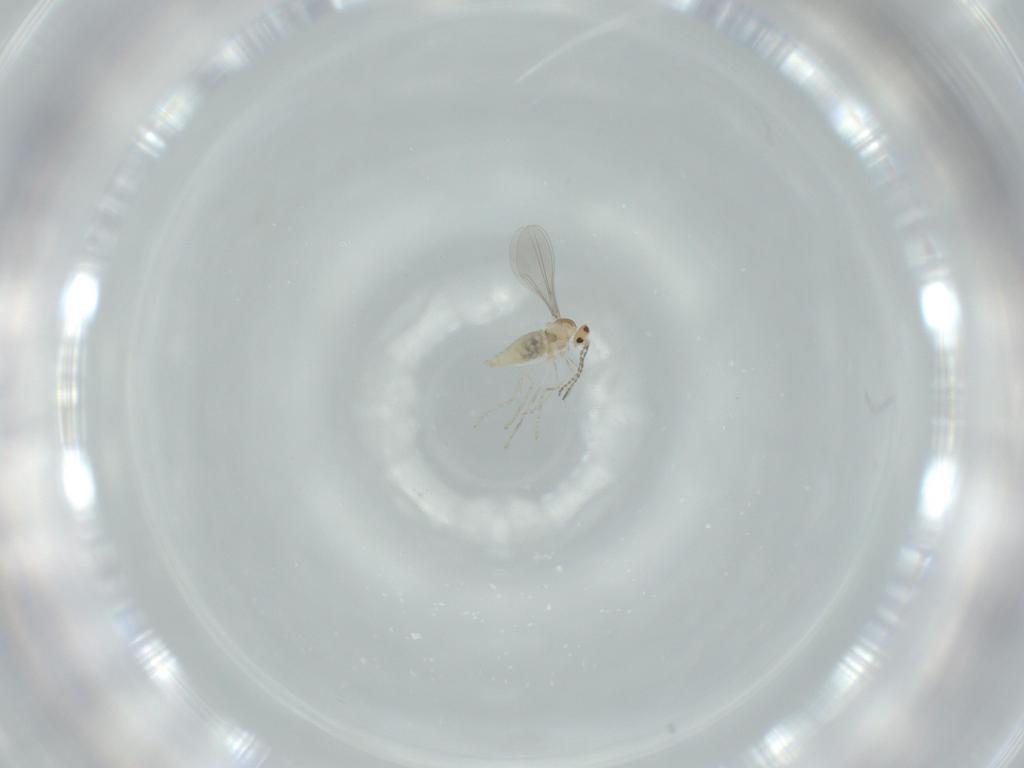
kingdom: Animalia
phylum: Arthropoda
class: Insecta
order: Diptera
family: Cecidomyiidae
